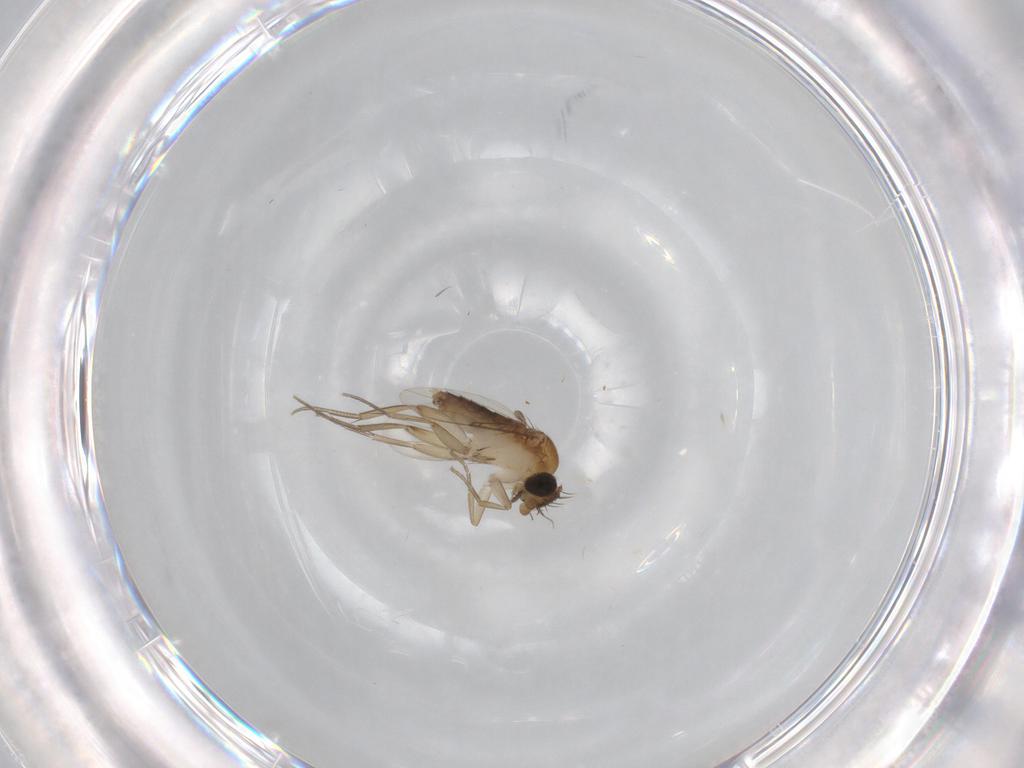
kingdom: Animalia
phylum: Arthropoda
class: Insecta
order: Diptera
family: Phoridae
